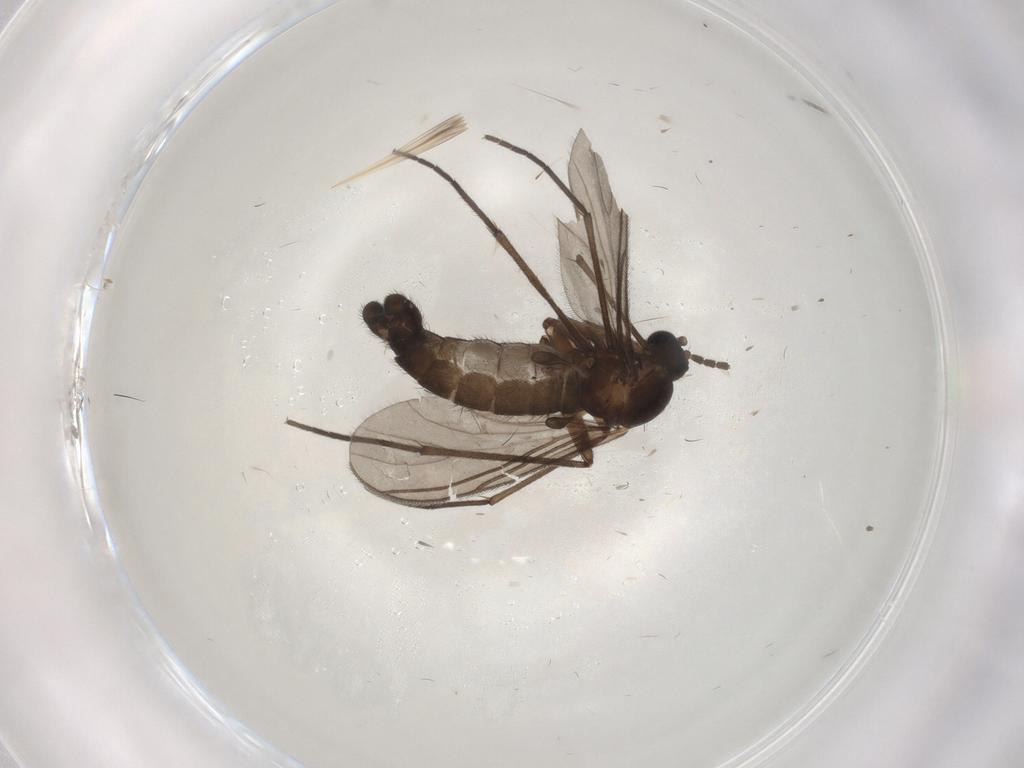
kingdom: Animalia
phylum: Arthropoda
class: Insecta
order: Diptera
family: Sciaridae
